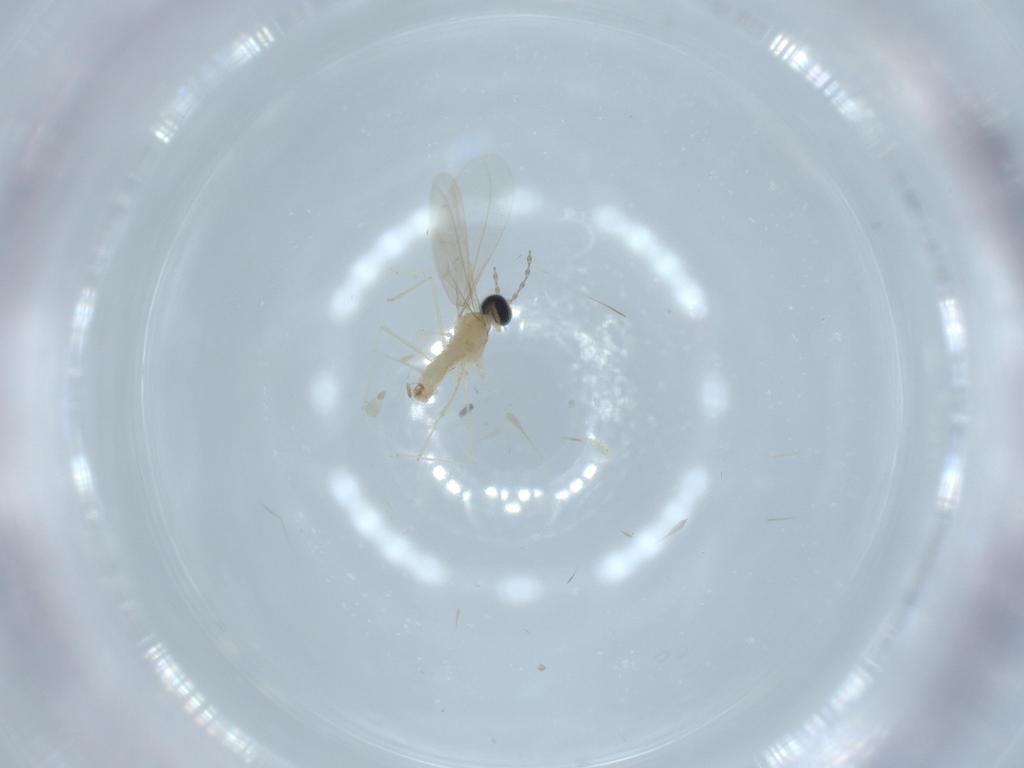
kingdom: Animalia
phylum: Arthropoda
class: Insecta
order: Diptera
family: Cecidomyiidae
